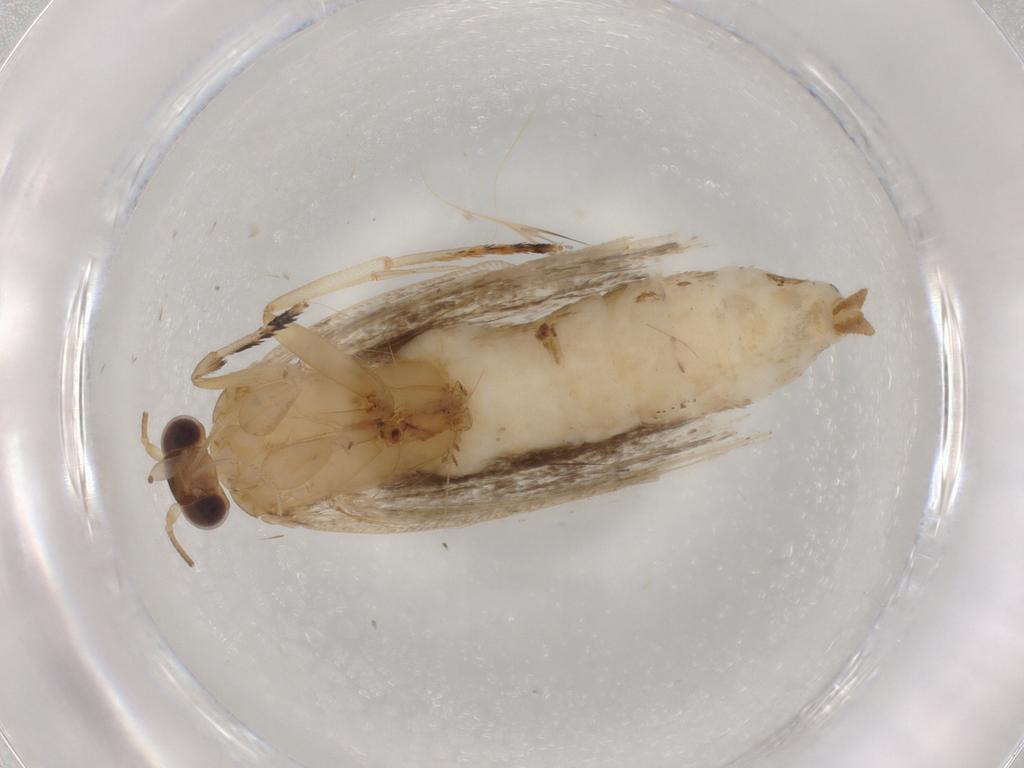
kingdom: Animalia
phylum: Arthropoda
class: Insecta
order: Lepidoptera
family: Tortricidae
